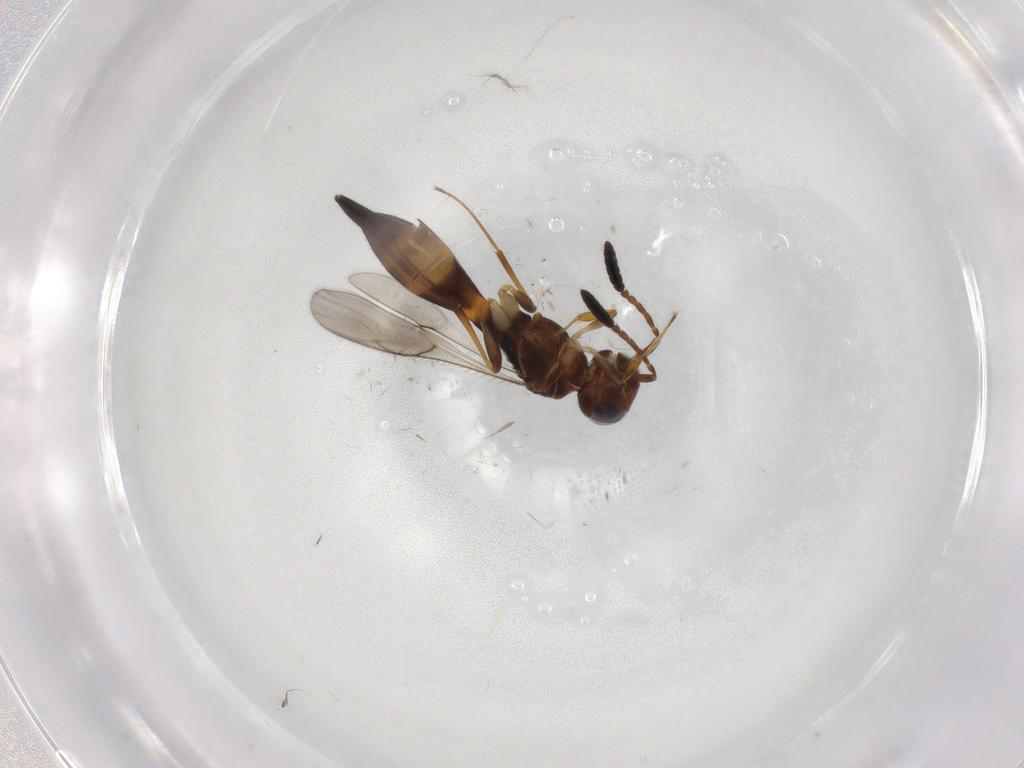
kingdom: Animalia
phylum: Arthropoda
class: Insecta
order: Hymenoptera
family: Scelionidae
